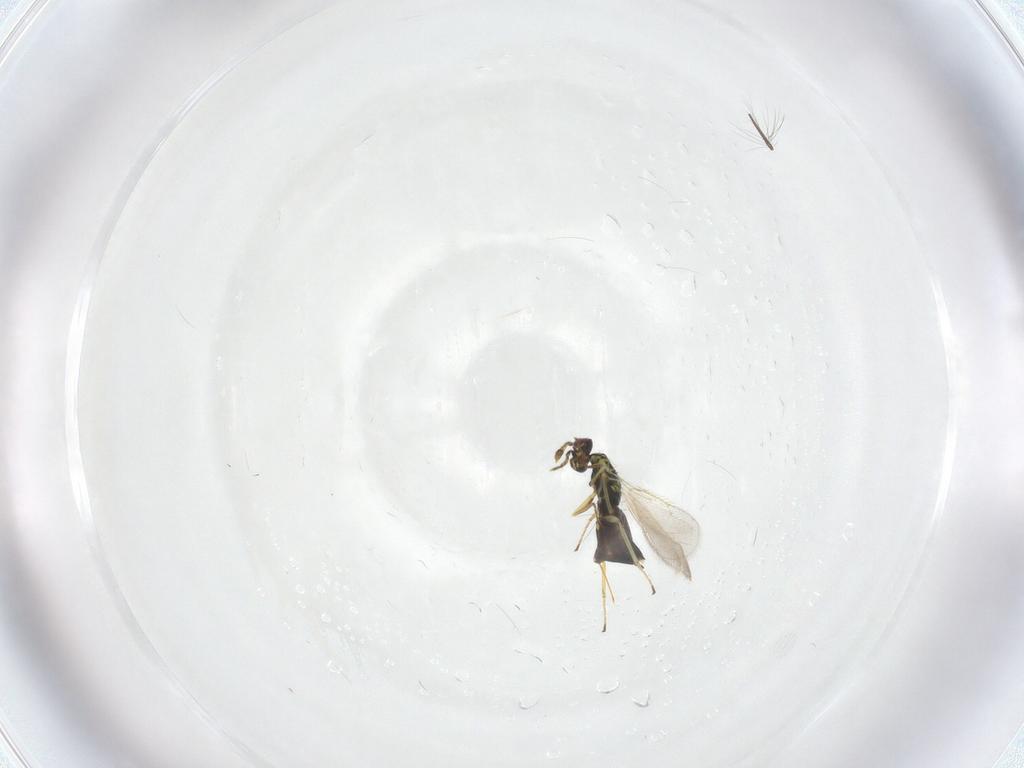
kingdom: Animalia
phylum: Arthropoda
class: Insecta
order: Hymenoptera
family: Eulophidae
